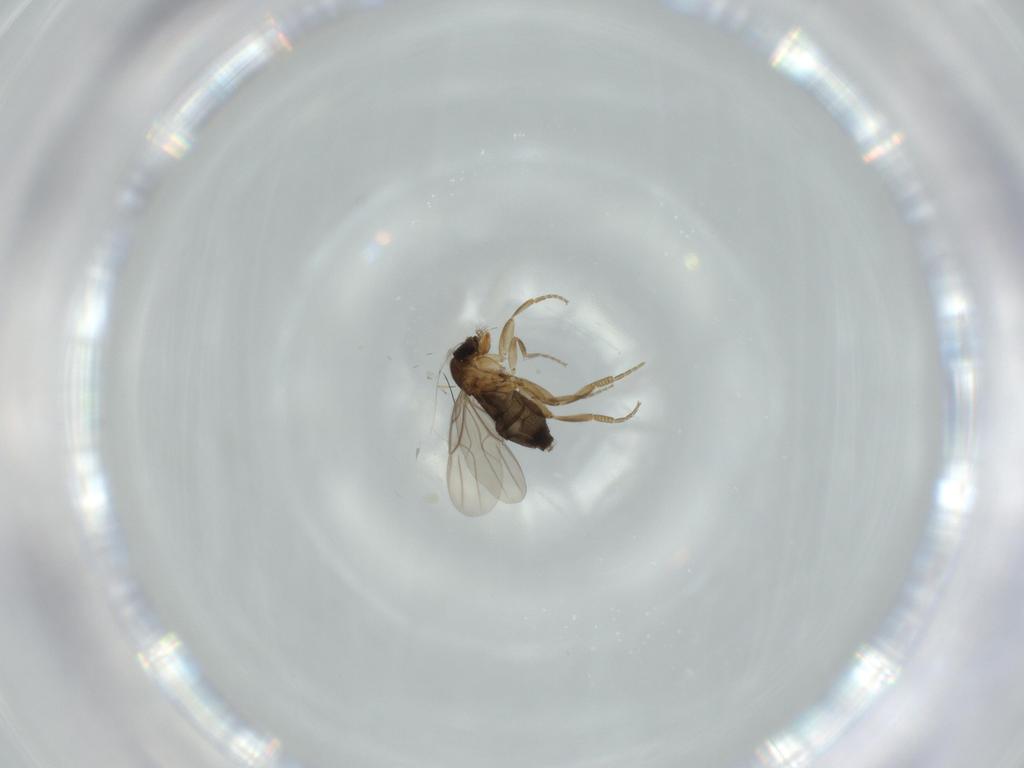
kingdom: Animalia
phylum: Arthropoda
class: Insecta
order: Diptera
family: Phoridae
